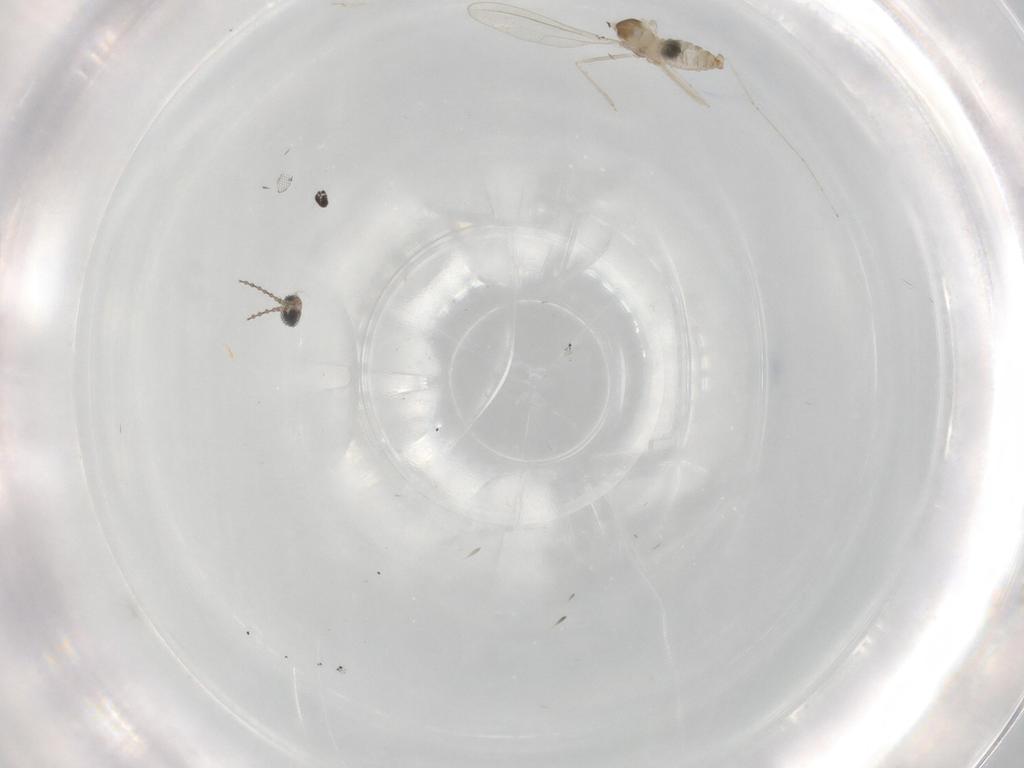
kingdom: Animalia
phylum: Arthropoda
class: Insecta
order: Diptera
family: Cecidomyiidae
